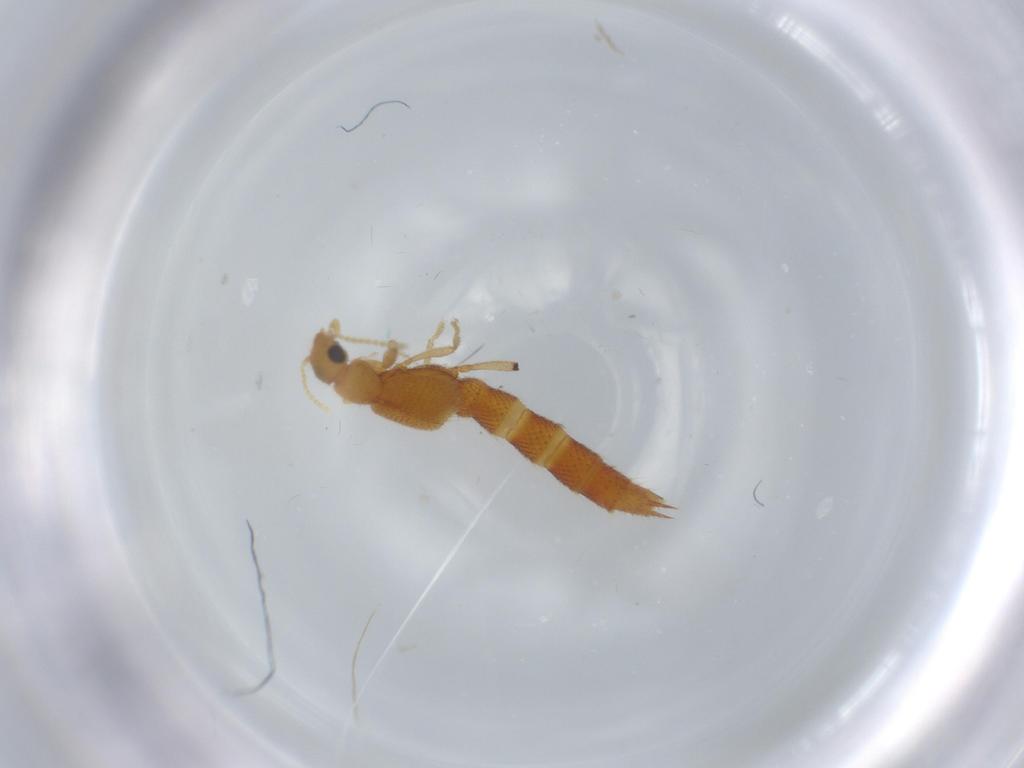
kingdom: Animalia
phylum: Arthropoda
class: Insecta
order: Coleoptera
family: Staphylinidae
